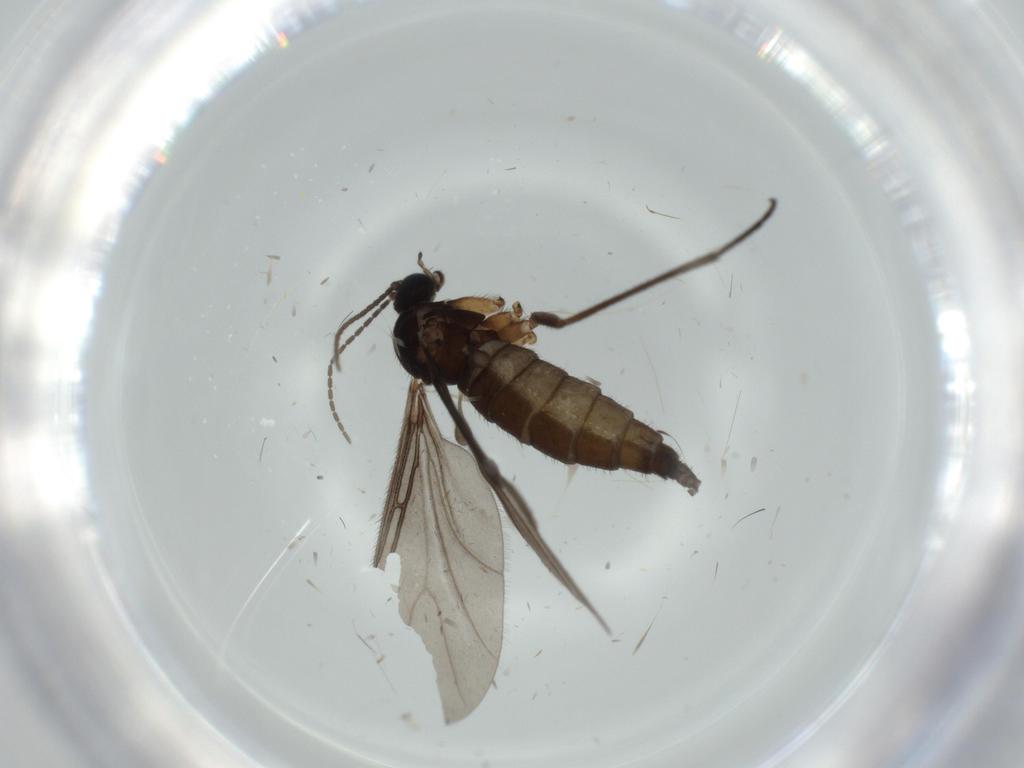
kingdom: Animalia
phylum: Arthropoda
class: Insecta
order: Diptera
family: Sciaridae
